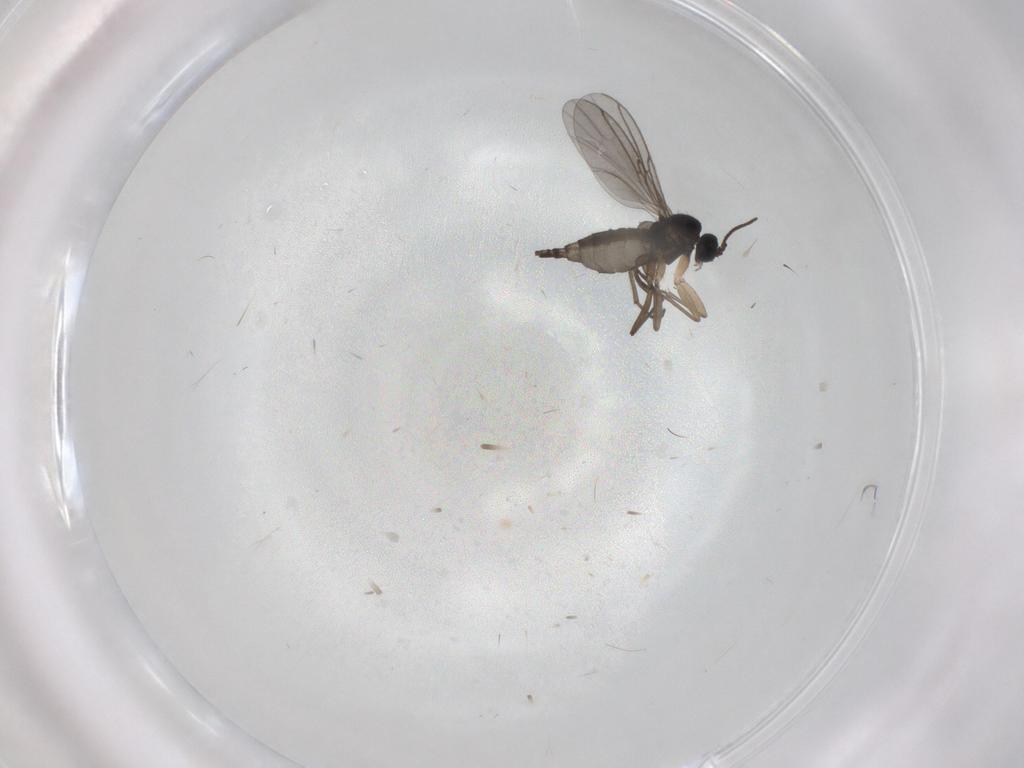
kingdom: Animalia
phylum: Arthropoda
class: Insecta
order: Diptera
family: Sciaridae
